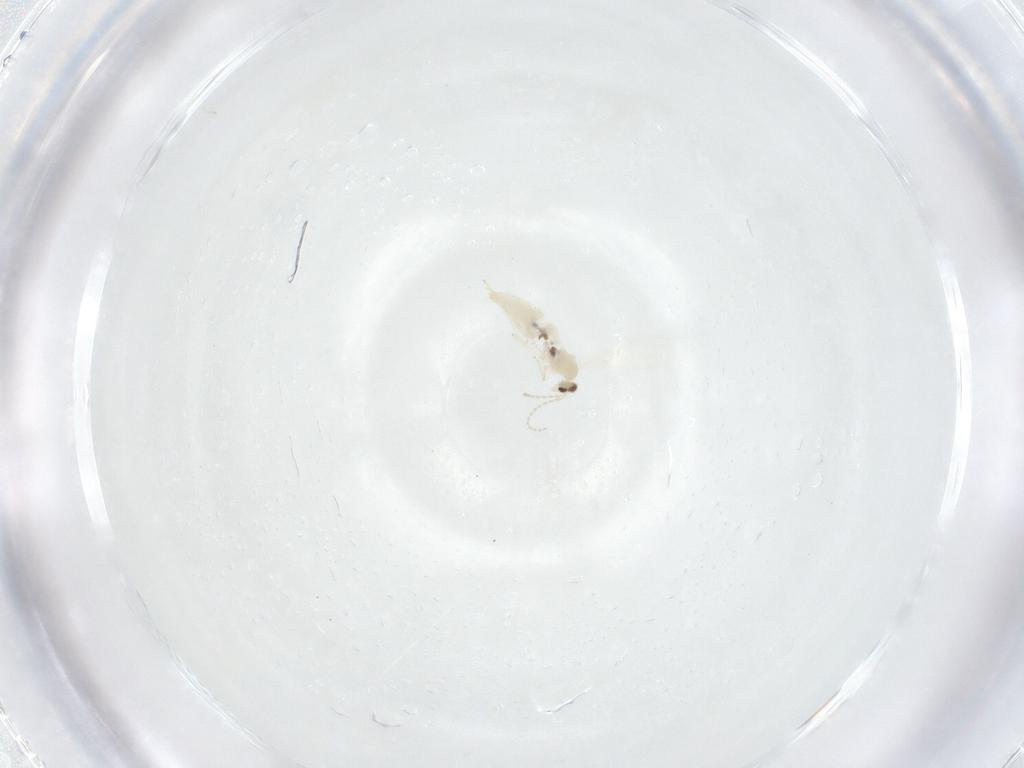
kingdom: Animalia
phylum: Arthropoda
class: Insecta
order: Diptera
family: Cecidomyiidae
